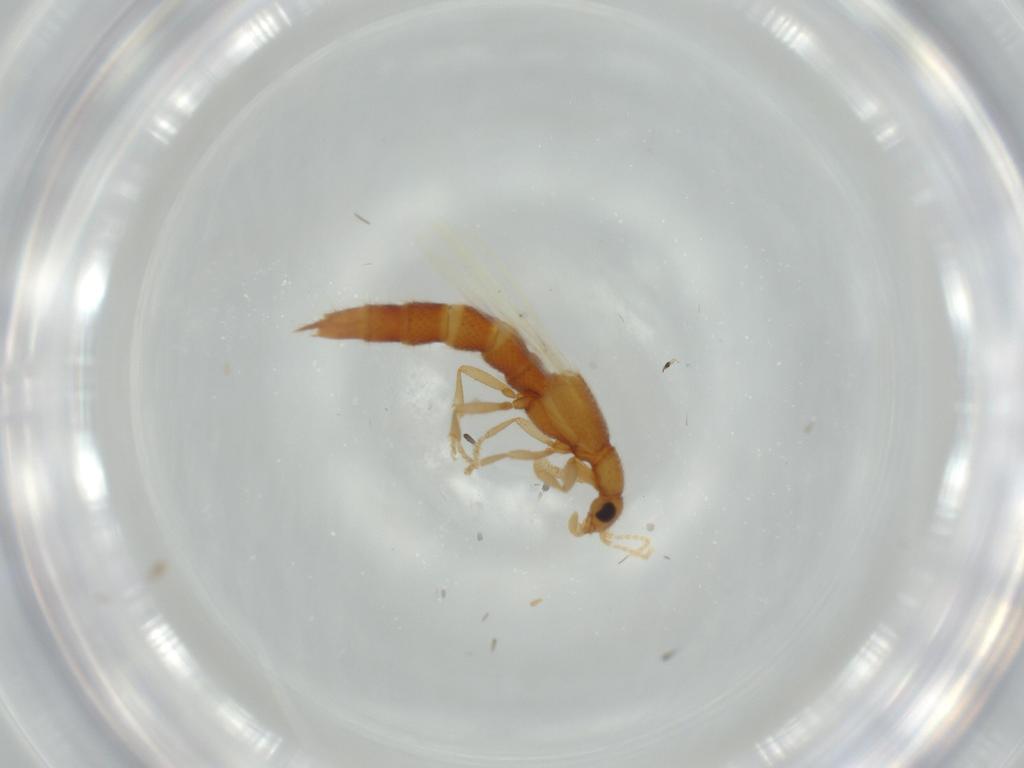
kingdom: Animalia
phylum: Arthropoda
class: Insecta
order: Coleoptera
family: Staphylinidae
